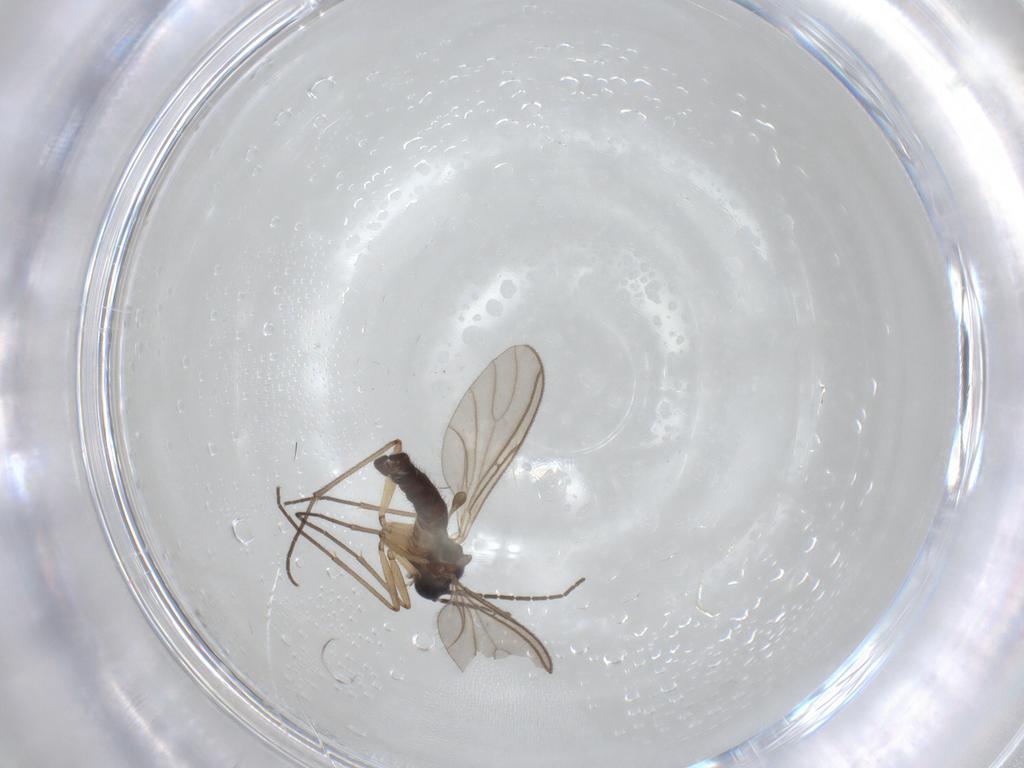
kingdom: Animalia
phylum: Arthropoda
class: Insecta
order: Diptera
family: Sciaridae
